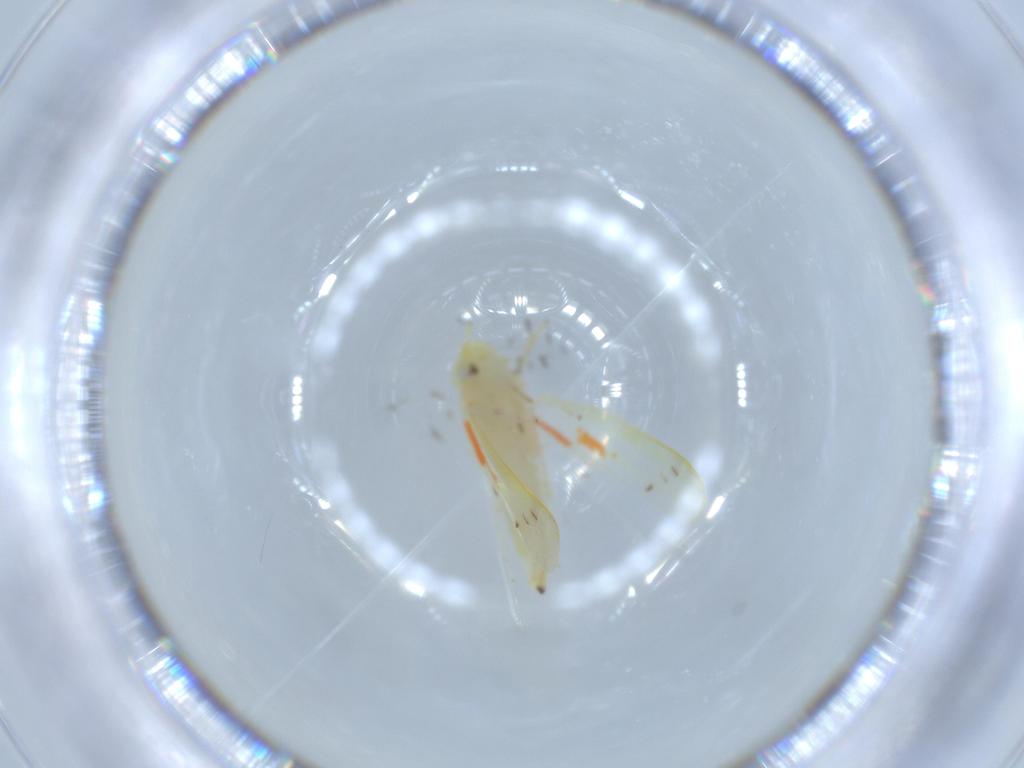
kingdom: Animalia
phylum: Arthropoda
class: Insecta
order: Hemiptera
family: Cicadellidae
